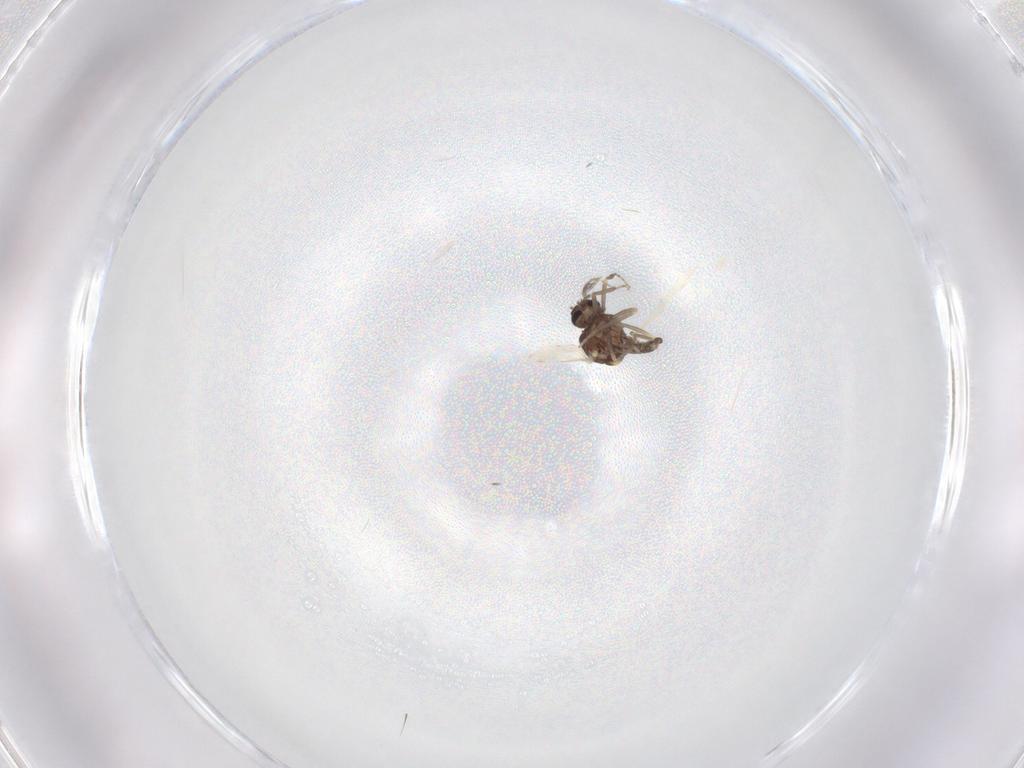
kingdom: Animalia
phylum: Arthropoda
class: Insecta
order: Diptera
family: Ceratopogonidae
